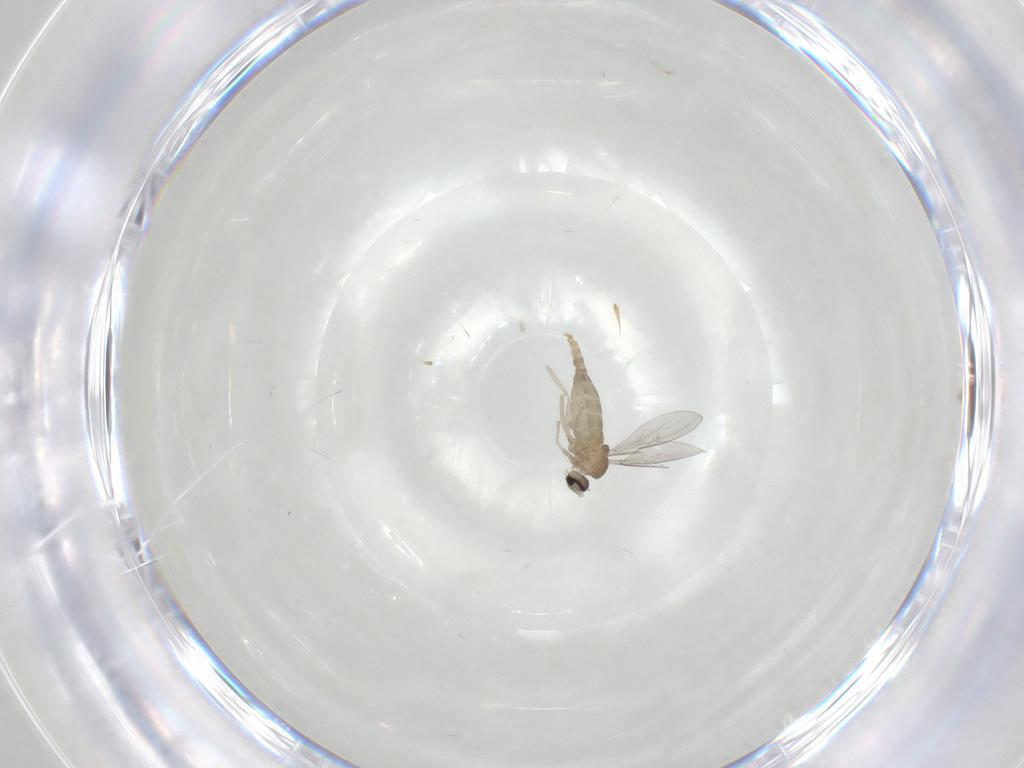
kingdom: Animalia
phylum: Arthropoda
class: Insecta
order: Diptera
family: Cecidomyiidae
